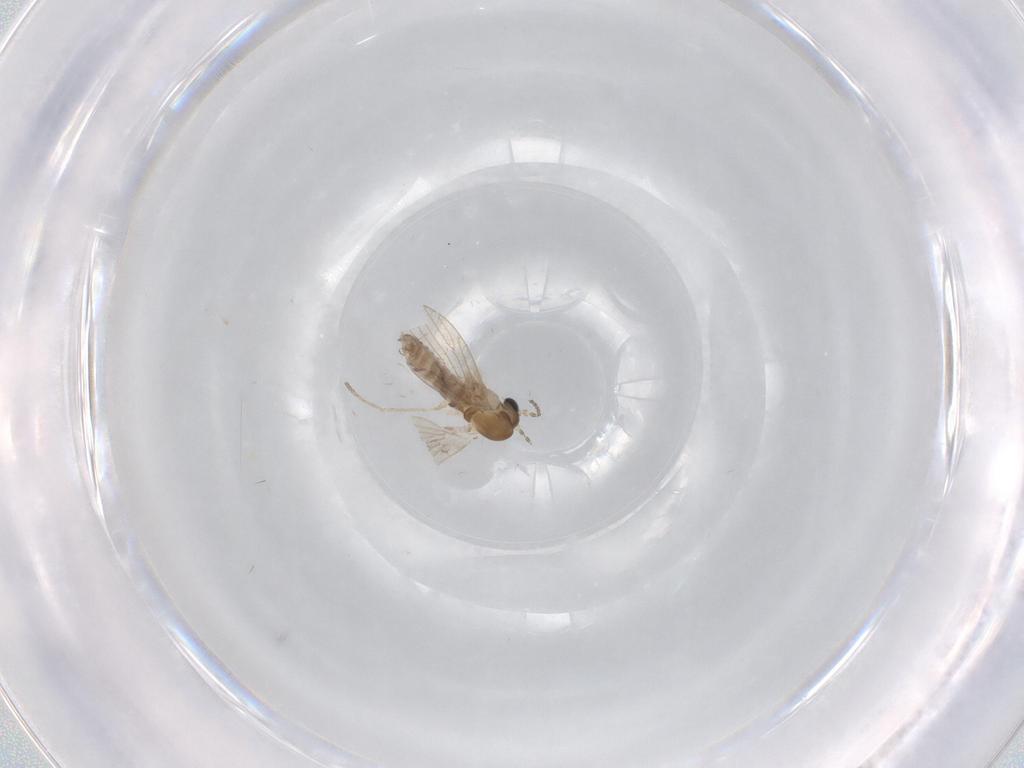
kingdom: Animalia
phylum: Arthropoda
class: Insecta
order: Diptera
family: Psychodidae
